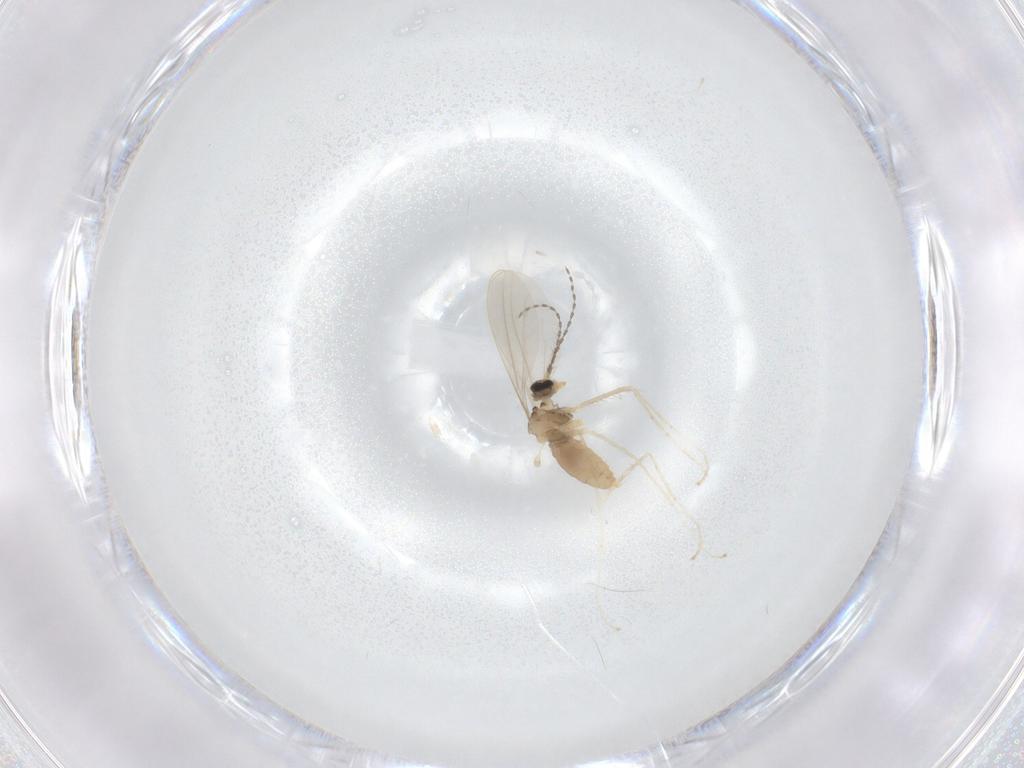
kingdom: Animalia
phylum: Arthropoda
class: Insecta
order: Diptera
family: Cecidomyiidae
